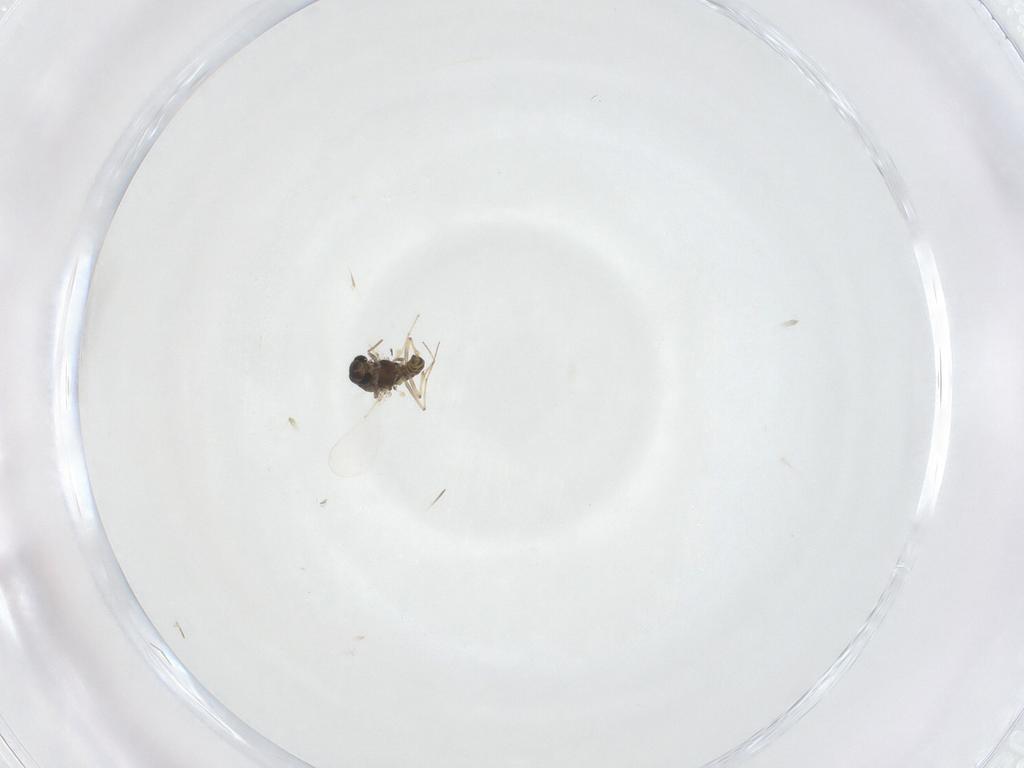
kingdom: Animalia
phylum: Arthropoda
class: Insecta
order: Diptera
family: Chironomidae
